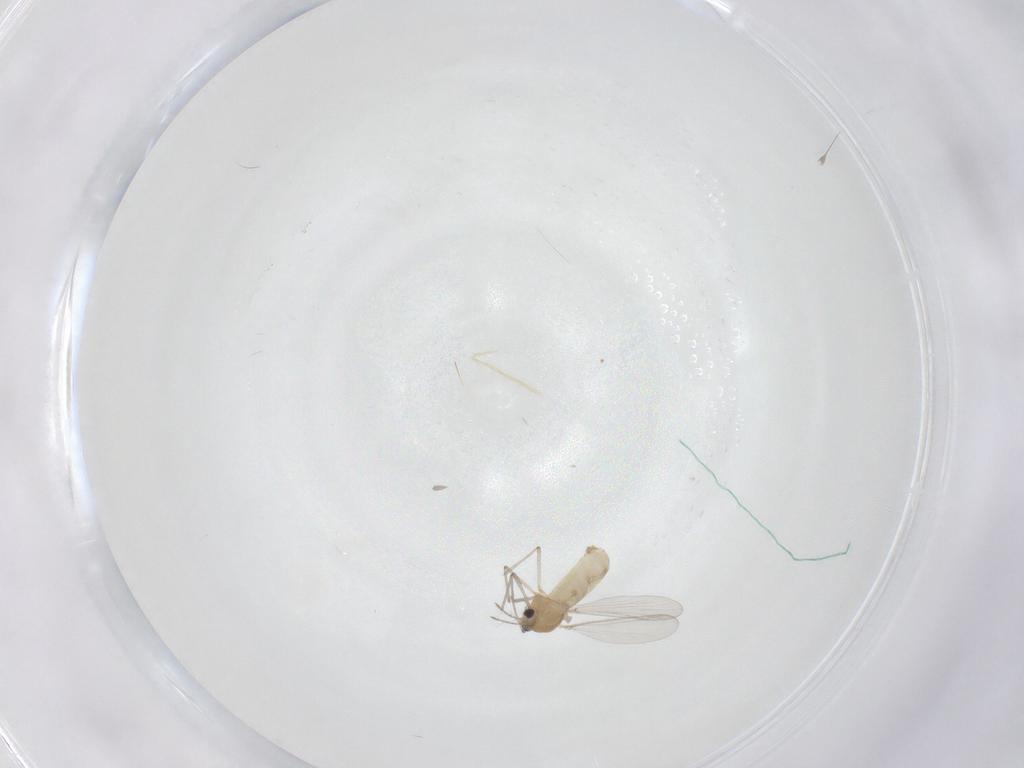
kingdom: Animalia
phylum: Arthropoda
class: Insecta
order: Diptera
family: Chironomidae
